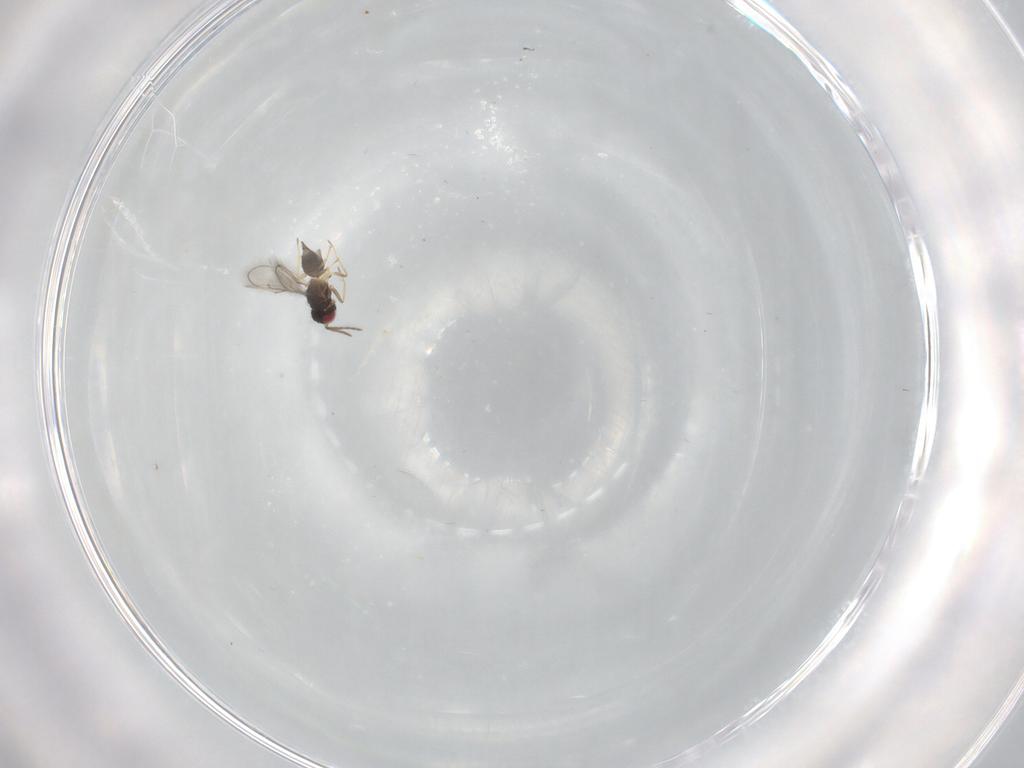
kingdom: Animalia
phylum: Arthropoda
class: Insecta
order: Hymenoptera
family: Eulophidae
